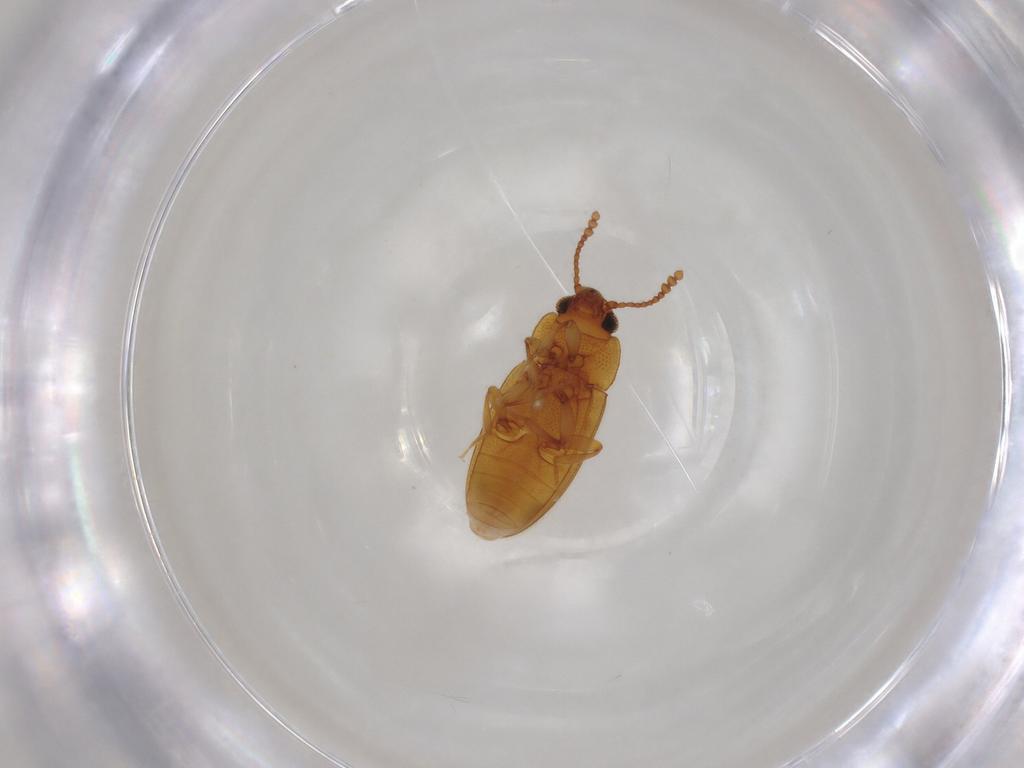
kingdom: Animalia
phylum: Arthropoda
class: Insecta
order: Coleoptera
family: Erotylidae
